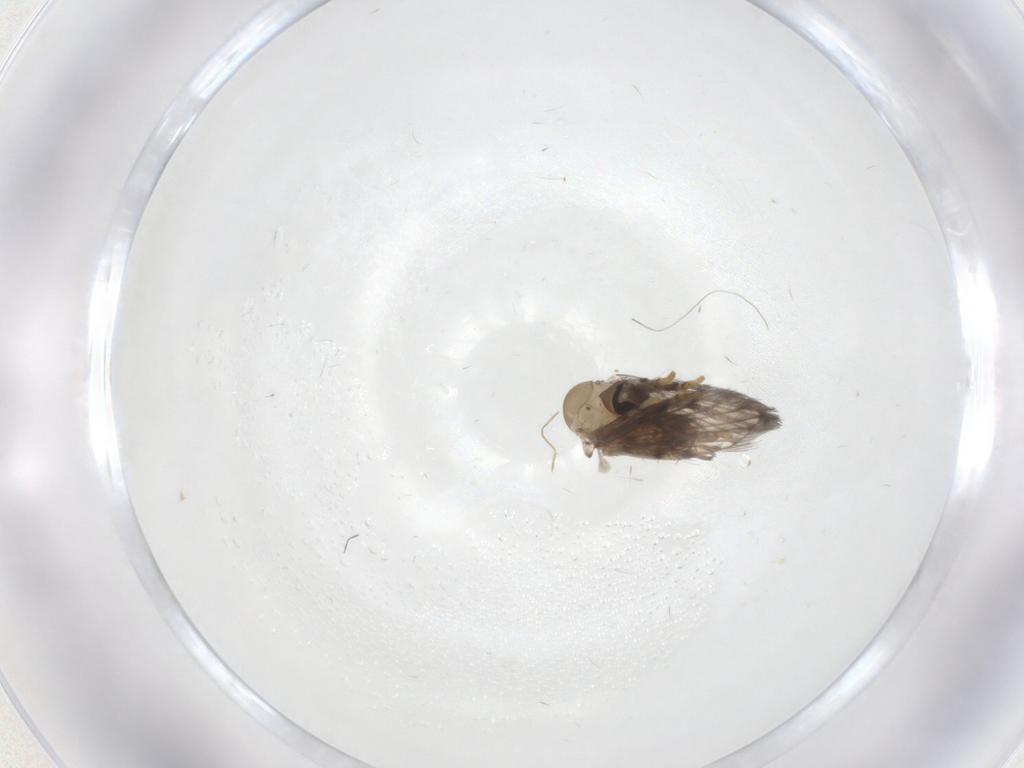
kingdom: Animalia
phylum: Arthropoda
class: Insecta
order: Diptera
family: Psychodidae
